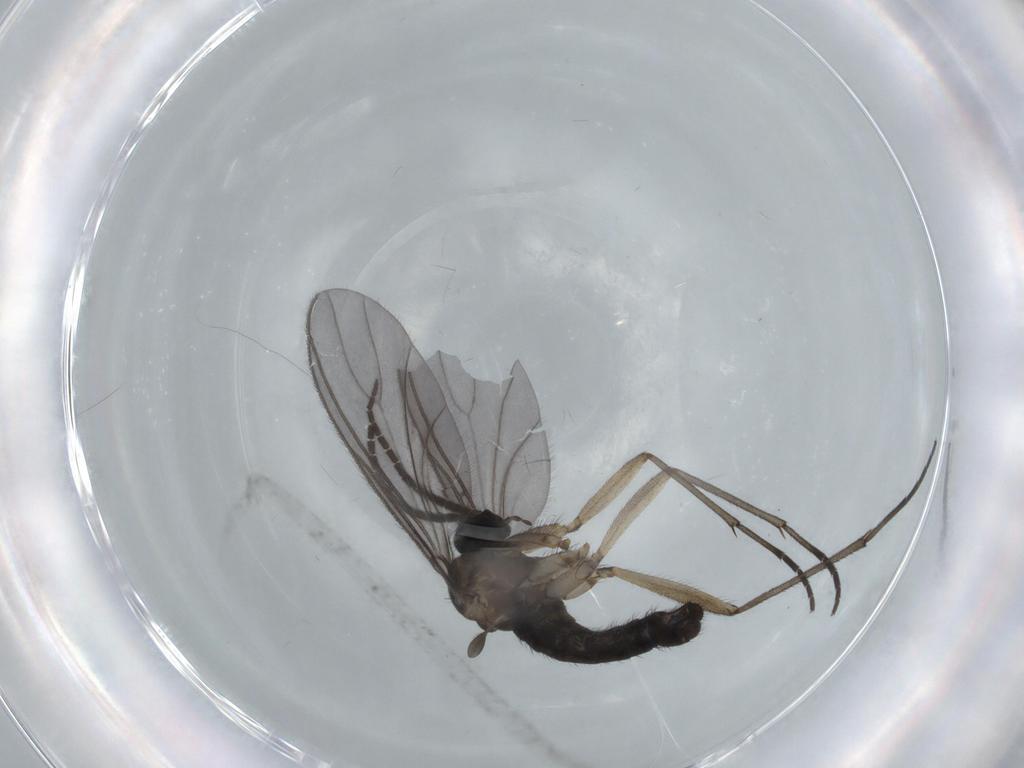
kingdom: Animalia
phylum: Arthropoda
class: Insecta
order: Diptera
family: Sciaridae
